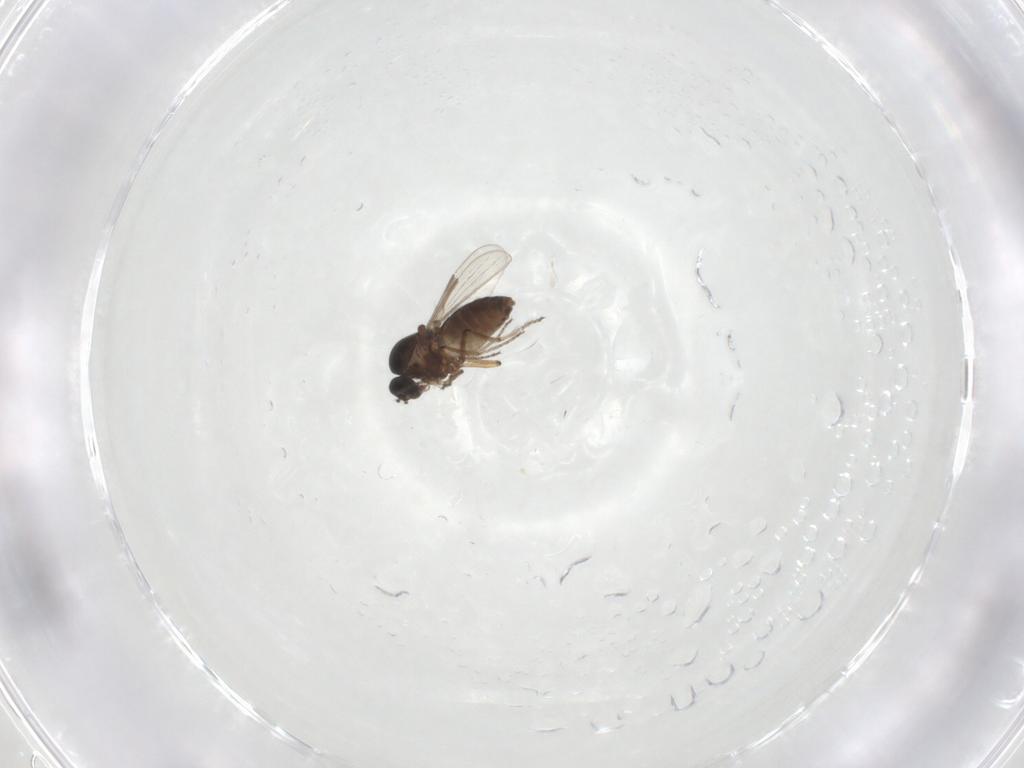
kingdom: Animalia
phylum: Arthropoda
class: Insecta
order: Diptera
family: Ceratopogonidae
